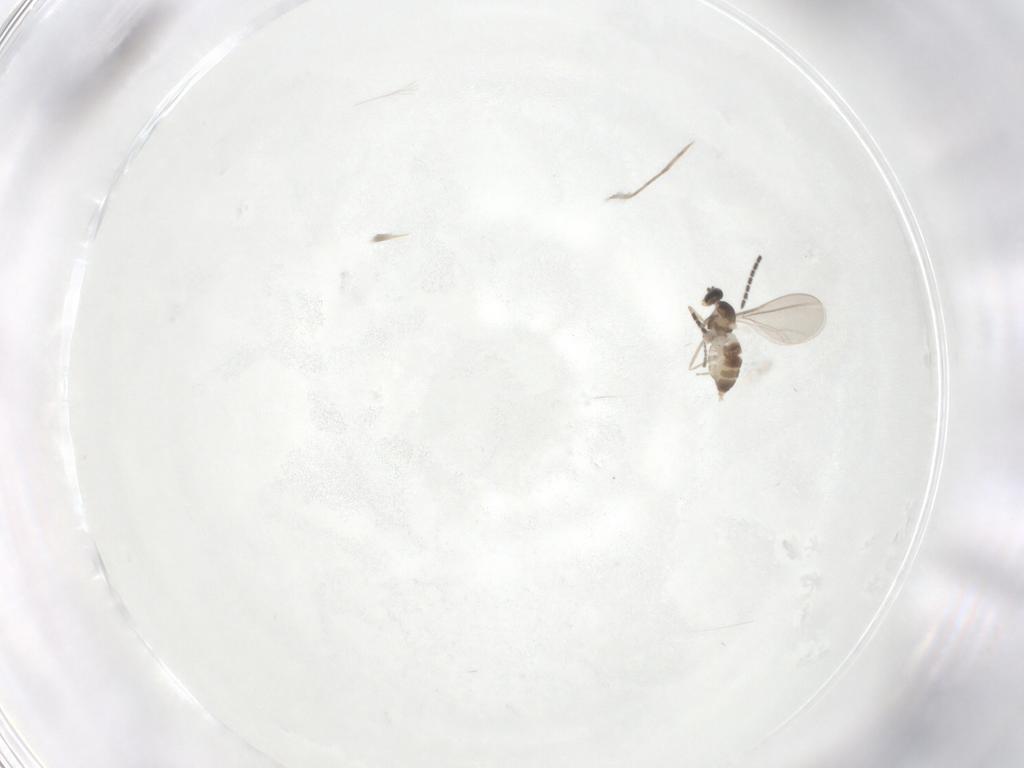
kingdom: Animalia
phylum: Arthropoda
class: Insecta
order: Diptera
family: Cecidomyiidae
